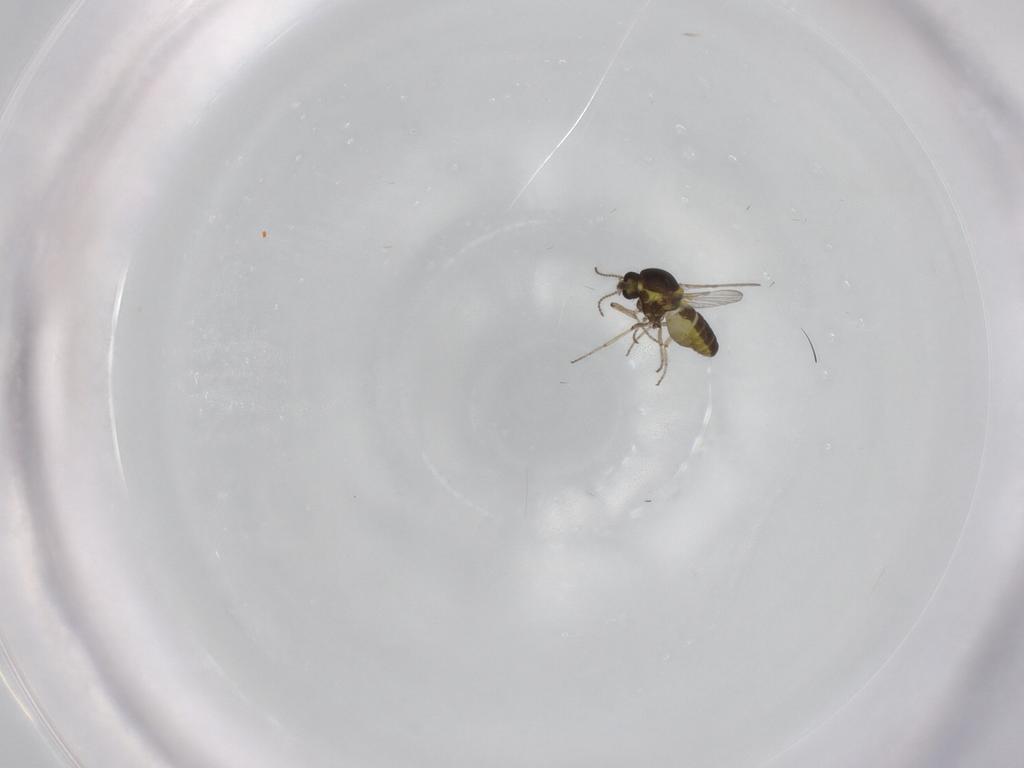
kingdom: Animalia
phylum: Arthropoda
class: Insecta
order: Diptera
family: Ceratopogonidae
